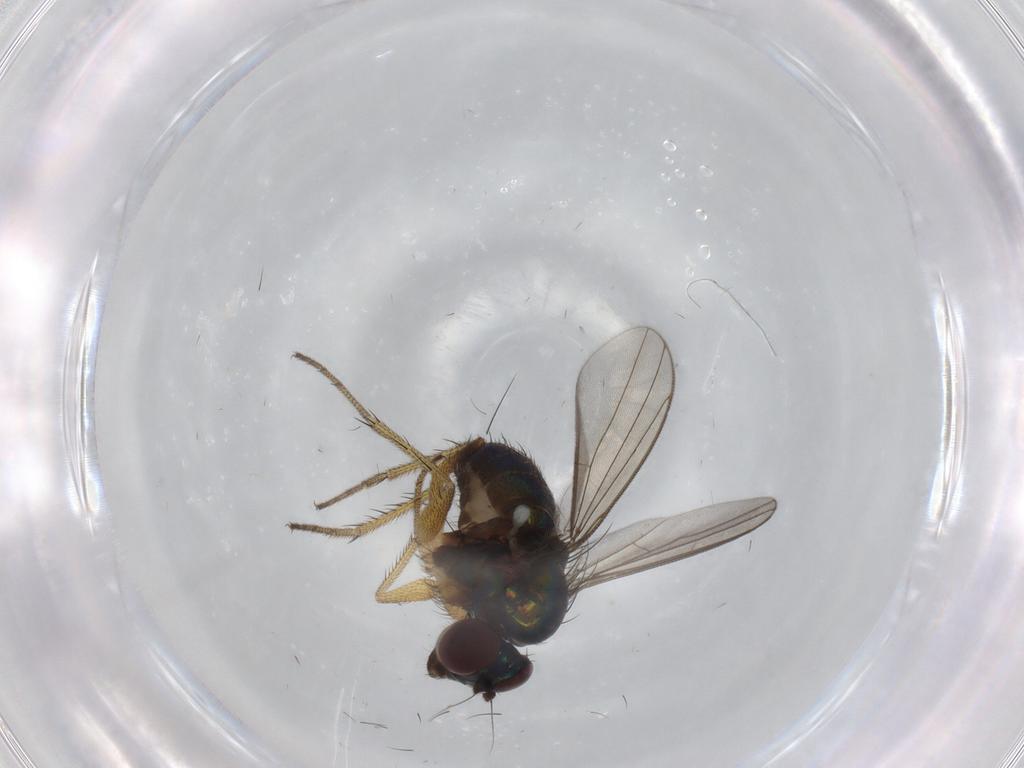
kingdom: Animalia
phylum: Arthropoda
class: Insecta
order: Diptera
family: Dolichopodidae
